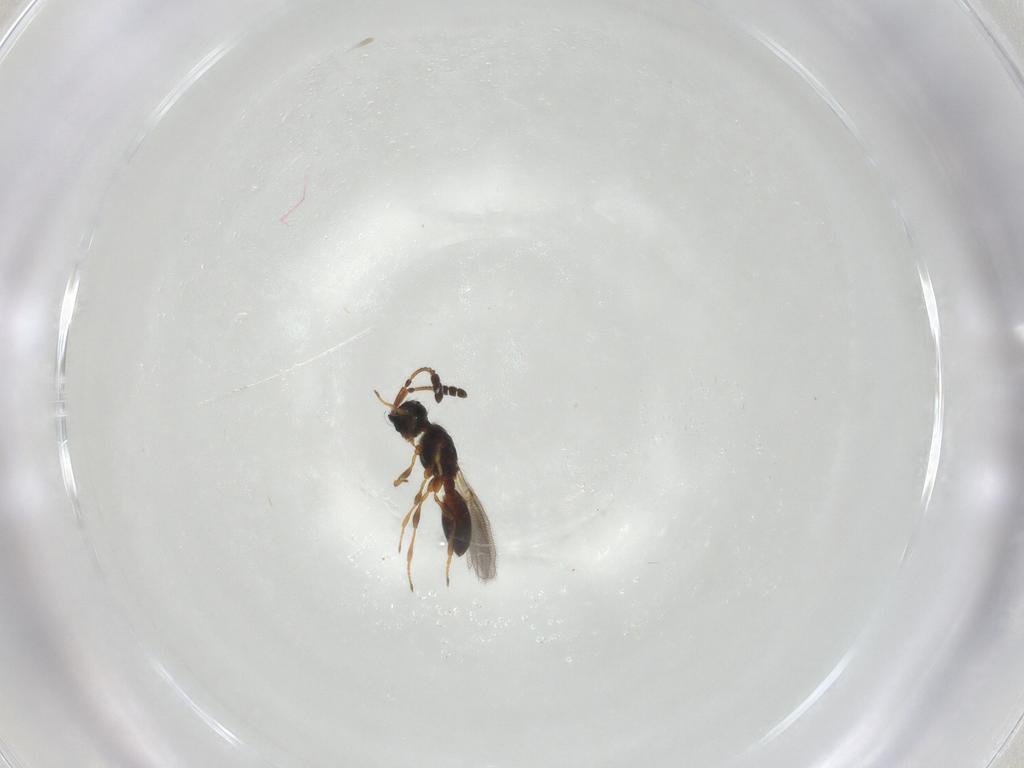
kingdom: Animalia
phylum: Arthropoda
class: Insecta
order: Hymenoptera
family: Diapriidae
